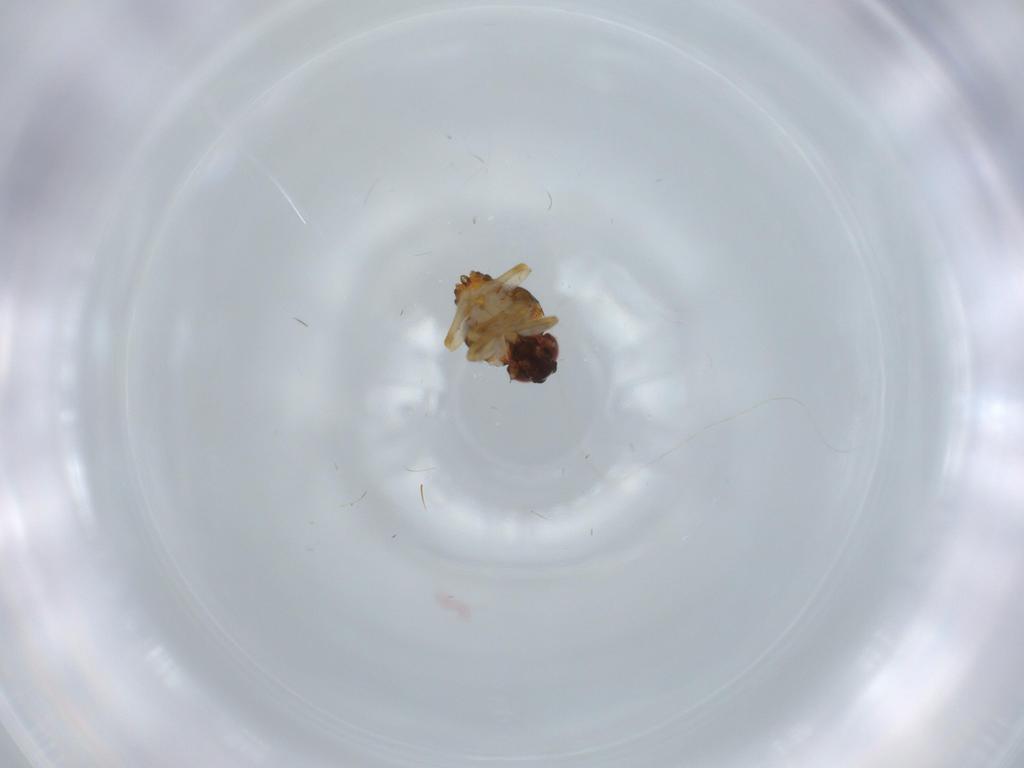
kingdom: Animalia
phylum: Arthropoda
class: Insecta
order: Hemiptera
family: Issidae
